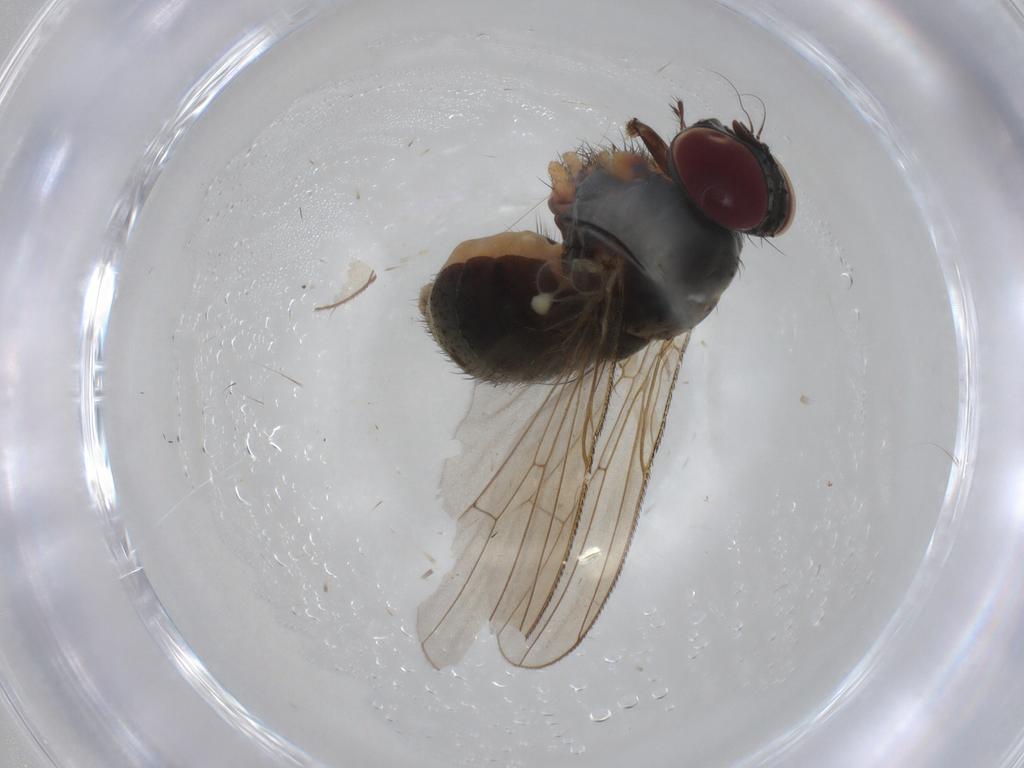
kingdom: Animalia
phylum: Arthropoda
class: Insecta
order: Diptera
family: Muscidae
